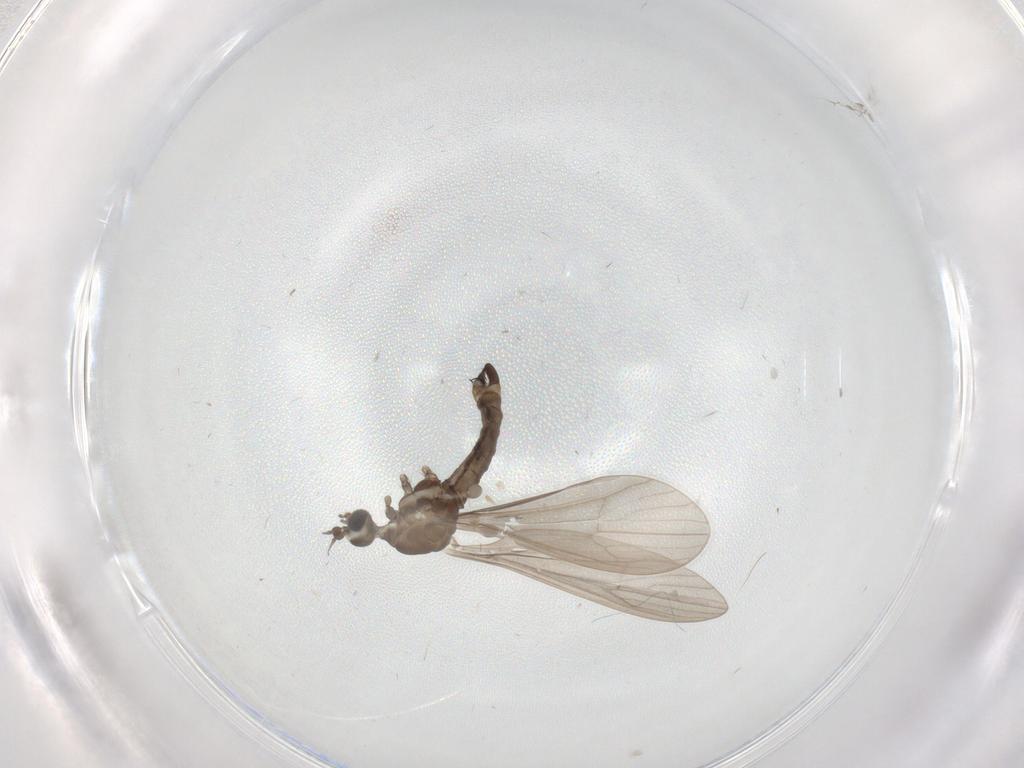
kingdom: Animalia
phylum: Arthropoda
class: Insecta
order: Diptera
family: Limoniidae
